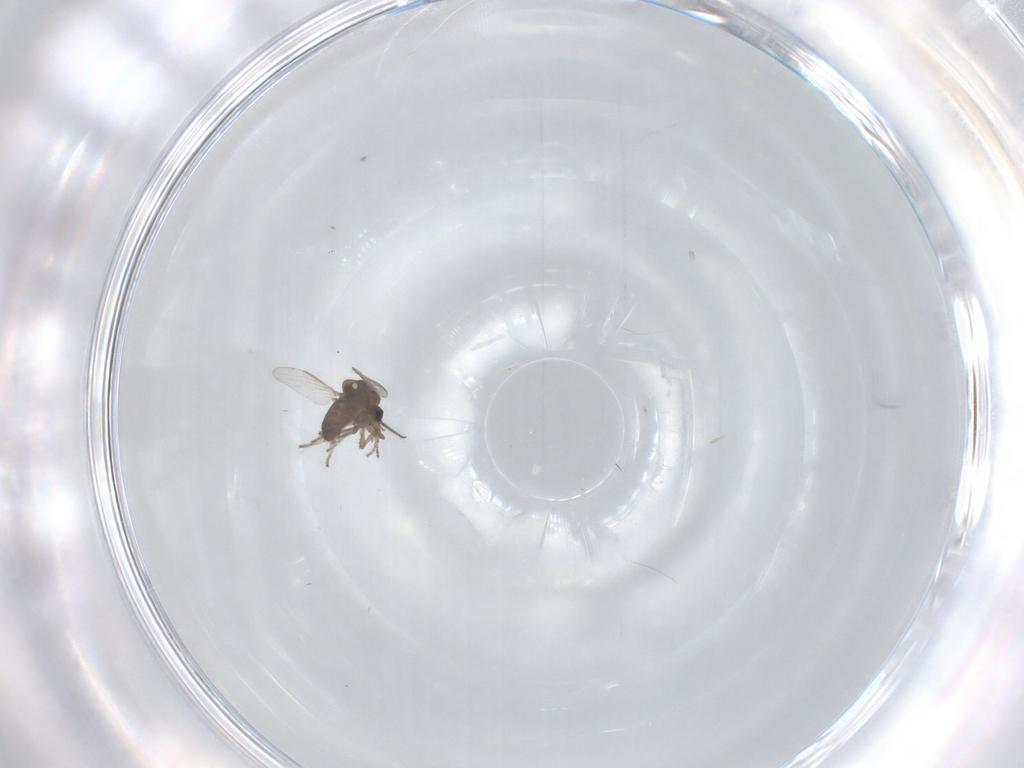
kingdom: Animalia
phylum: Arthropoda
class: Insecta
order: Diptera
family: Ceratopogonidae
